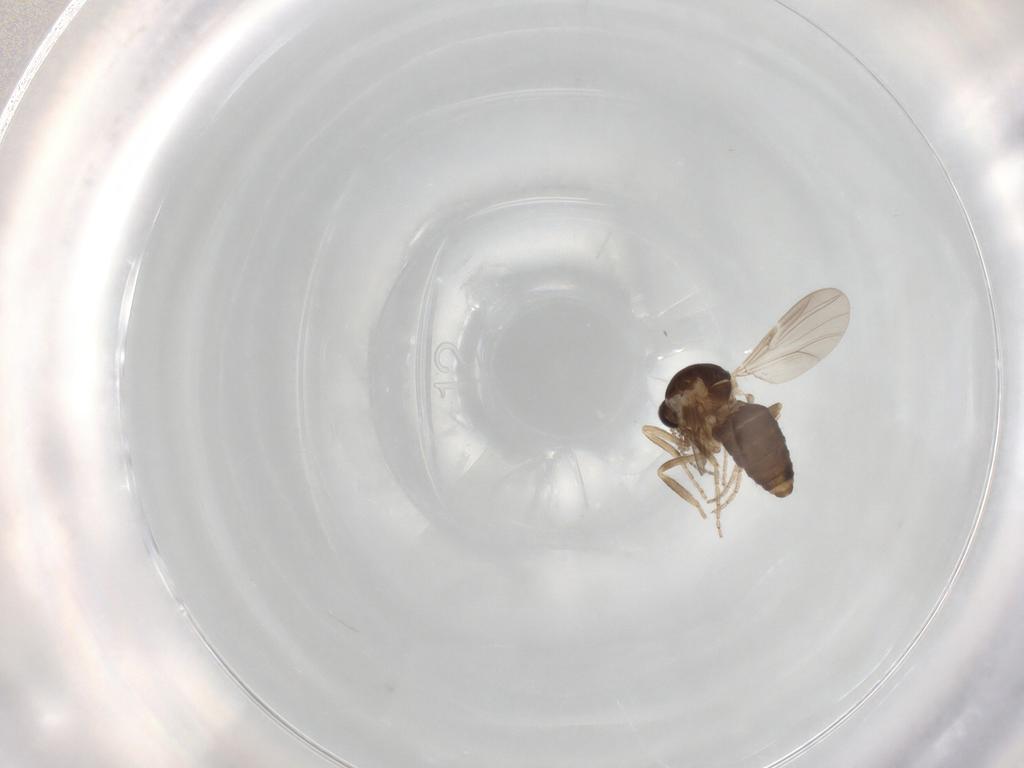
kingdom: Animalia
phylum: Arthropoda
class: Insecta
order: Diptera
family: Ceratopogonidae
